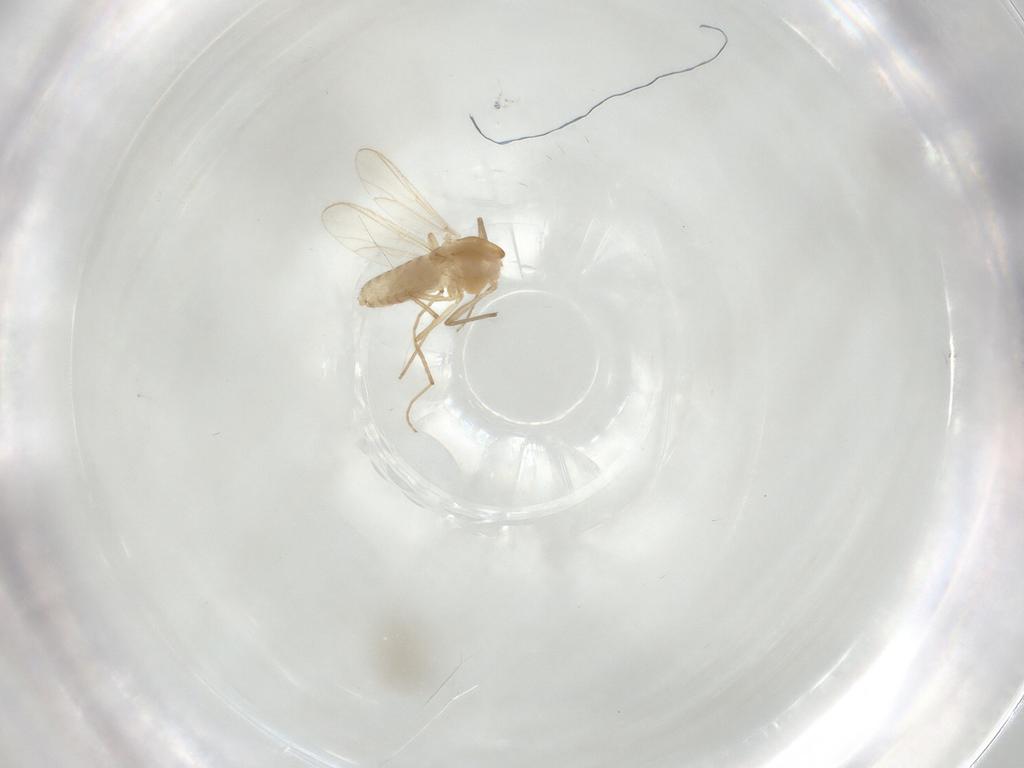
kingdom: Animalia
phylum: Arthropoda
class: Insecta
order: Diptera
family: Chironomidae
